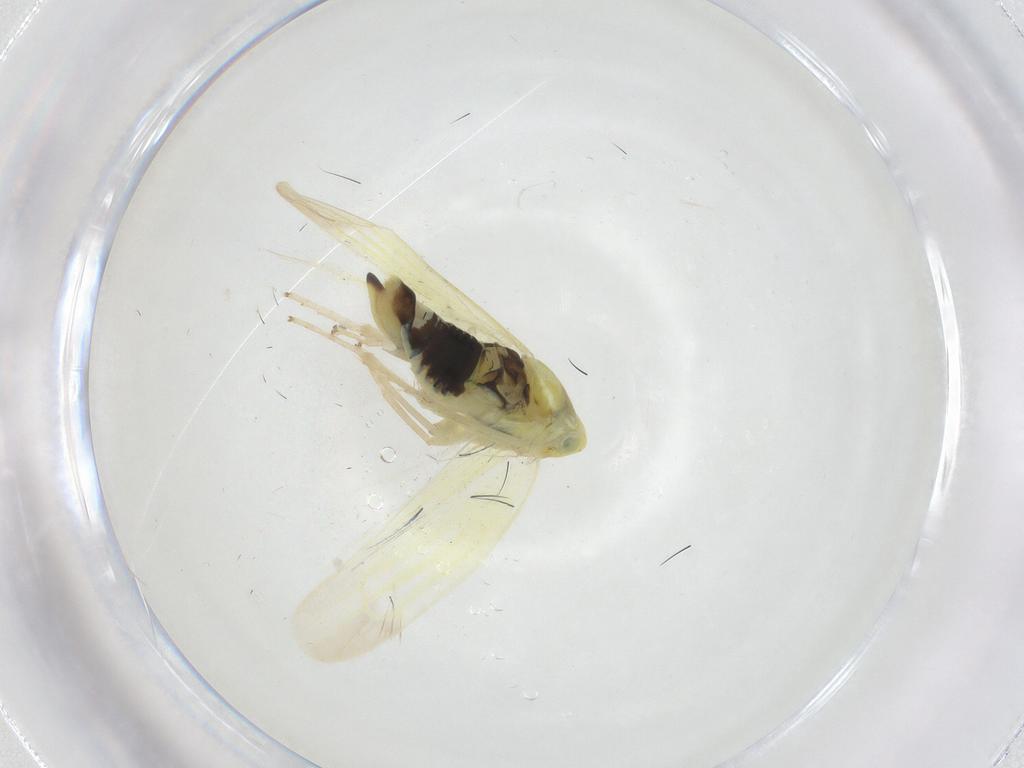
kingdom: Animalia
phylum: Arthropoda
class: Insecta
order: Hemiptera
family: Cicadellidae
